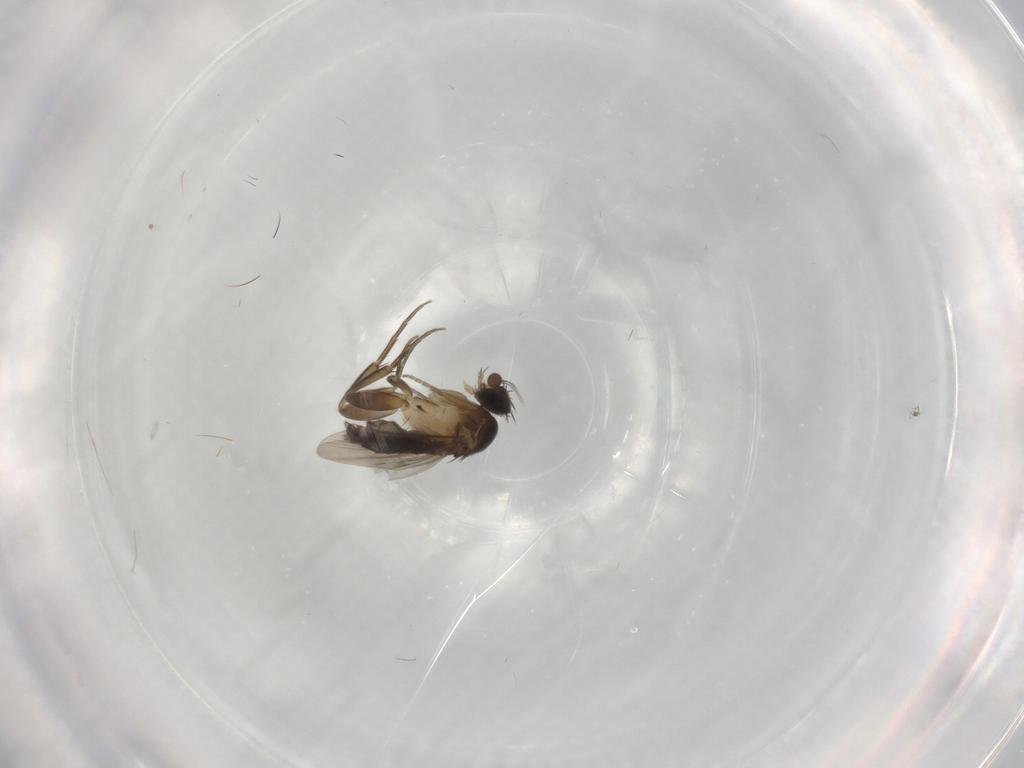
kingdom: Animalia
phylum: Arthropoda
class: Insecta
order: Diptera
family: Phoridae
